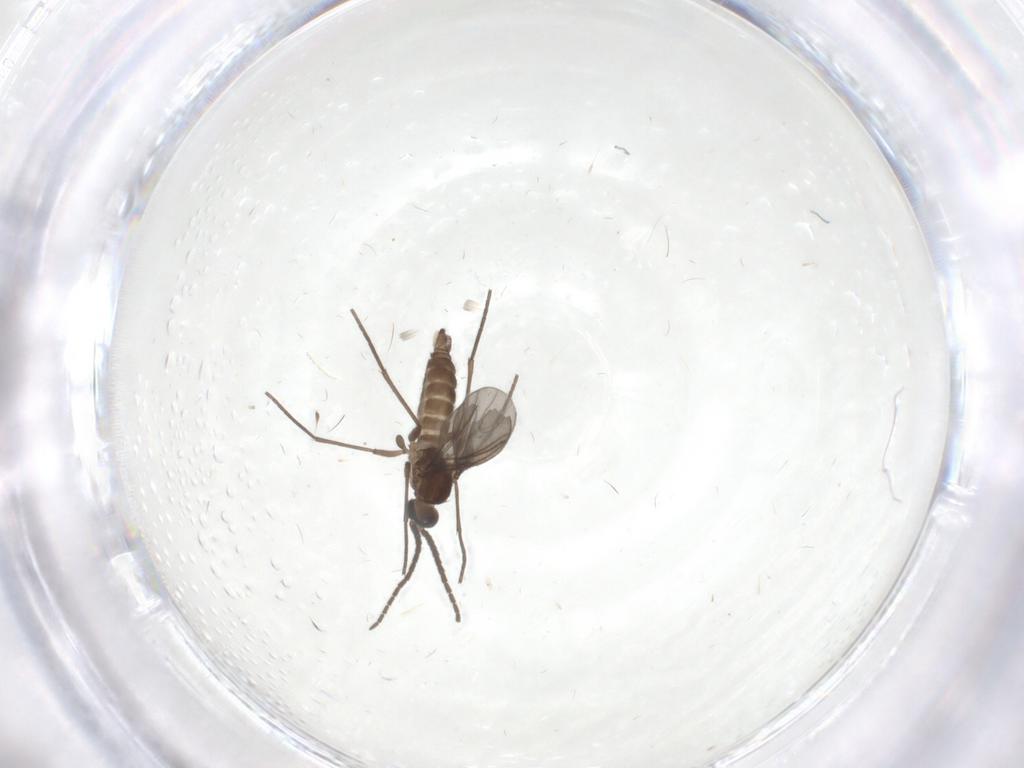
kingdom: Animalia
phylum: Arthropoda
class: Insecta
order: Diptera
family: Sciaridae
